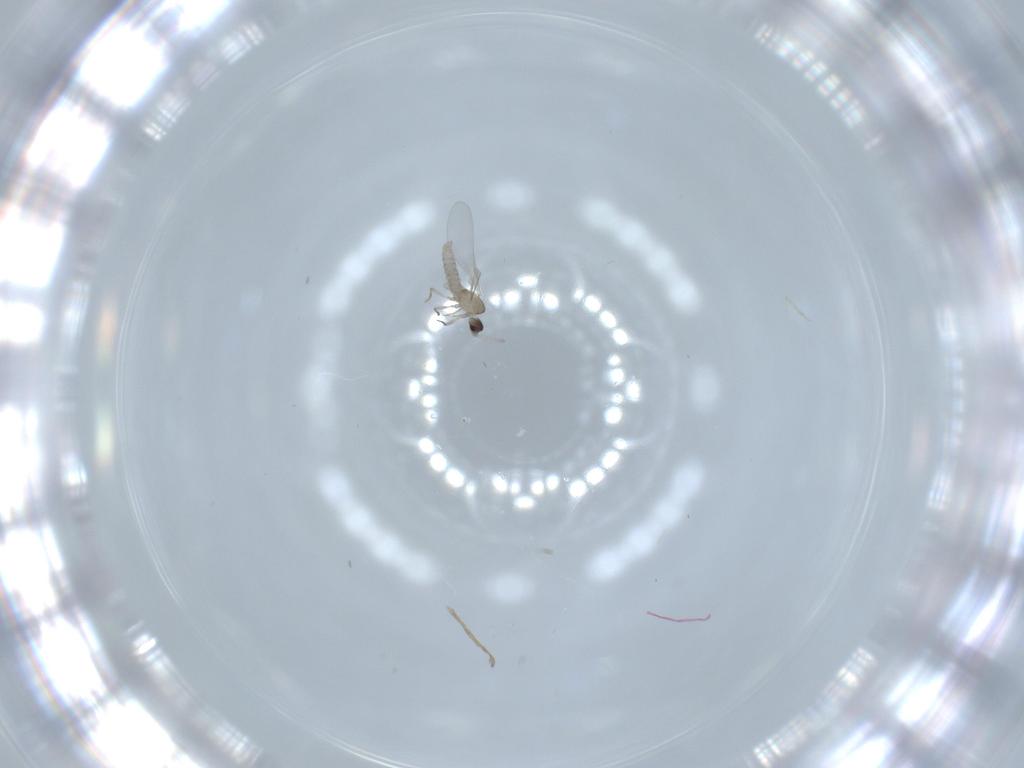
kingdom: Animalia
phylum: Arthropoda
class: Insecta
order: Diptera
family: Cecidomyiidae
